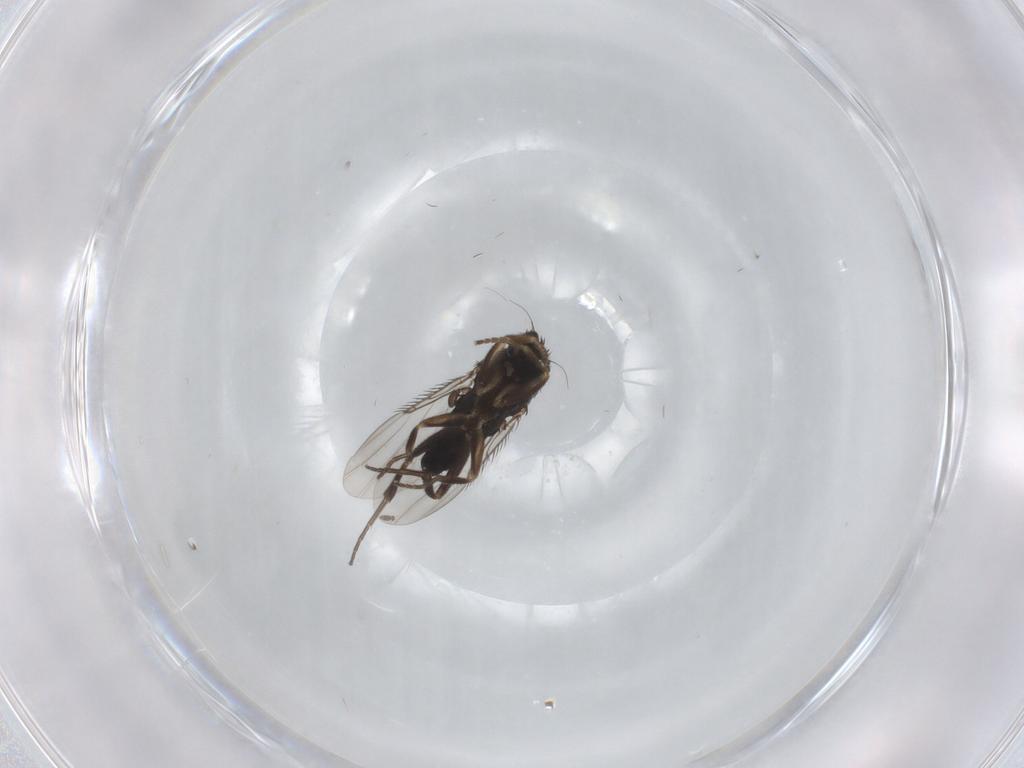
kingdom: Animalia
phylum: Arthropoda
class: Insecta
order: Diptera
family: Phoridae
